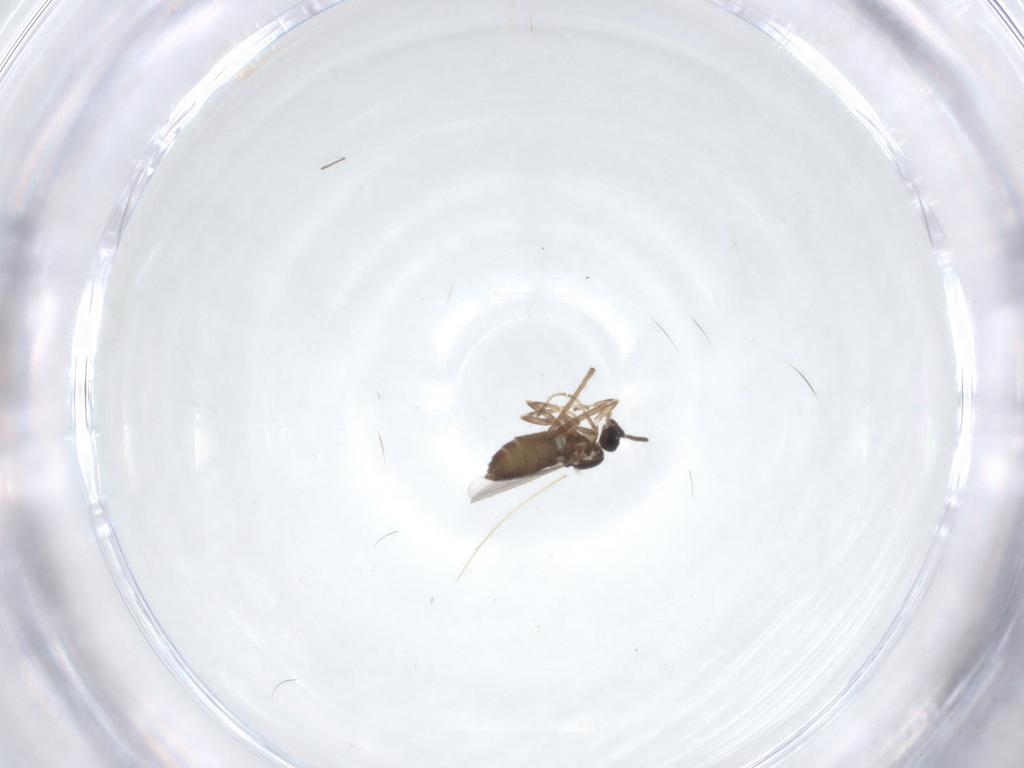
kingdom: Animalia
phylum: Arthropoda
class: Insecta
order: Diptera
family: Scatopsidae
